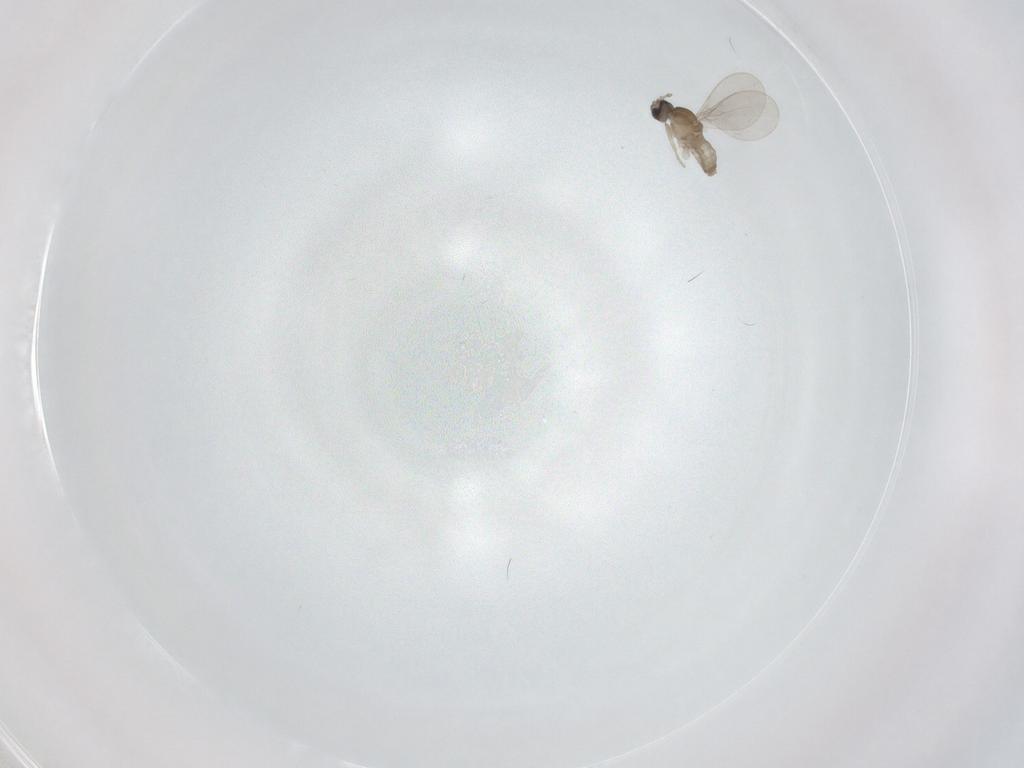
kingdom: Animalia
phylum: Arthropoda
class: Insecta
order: Diptera
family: Cecidomyiidae
